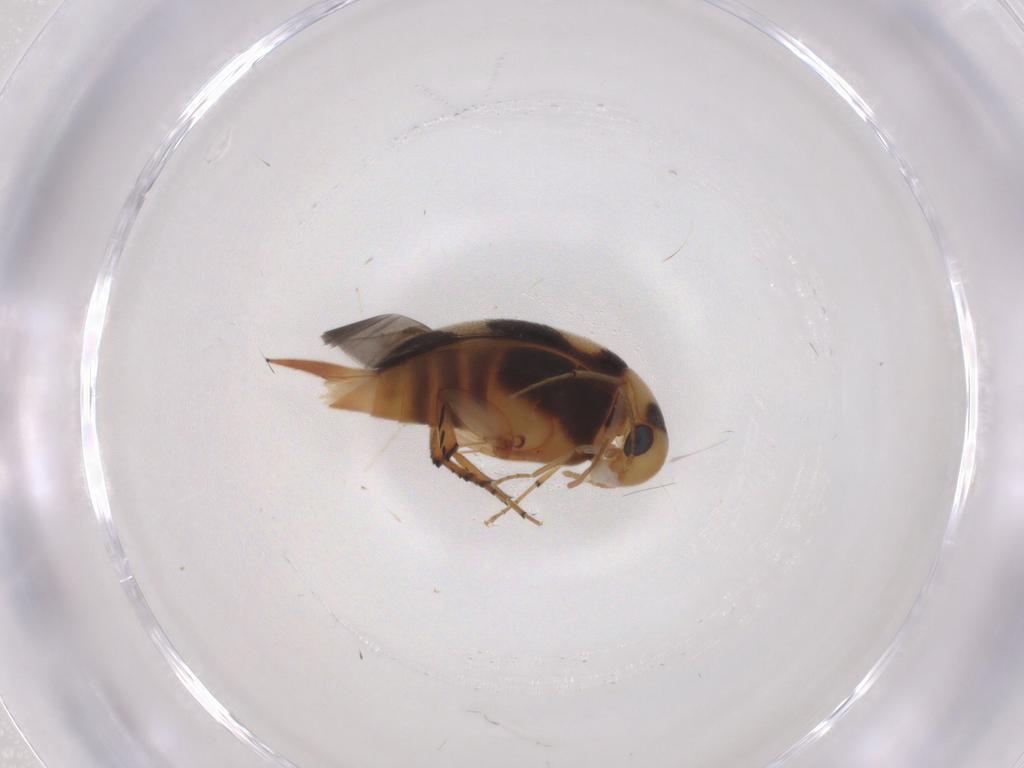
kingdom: Animalia
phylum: Arthropoda
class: Insecta
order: Coleoptera
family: Mordellidae
